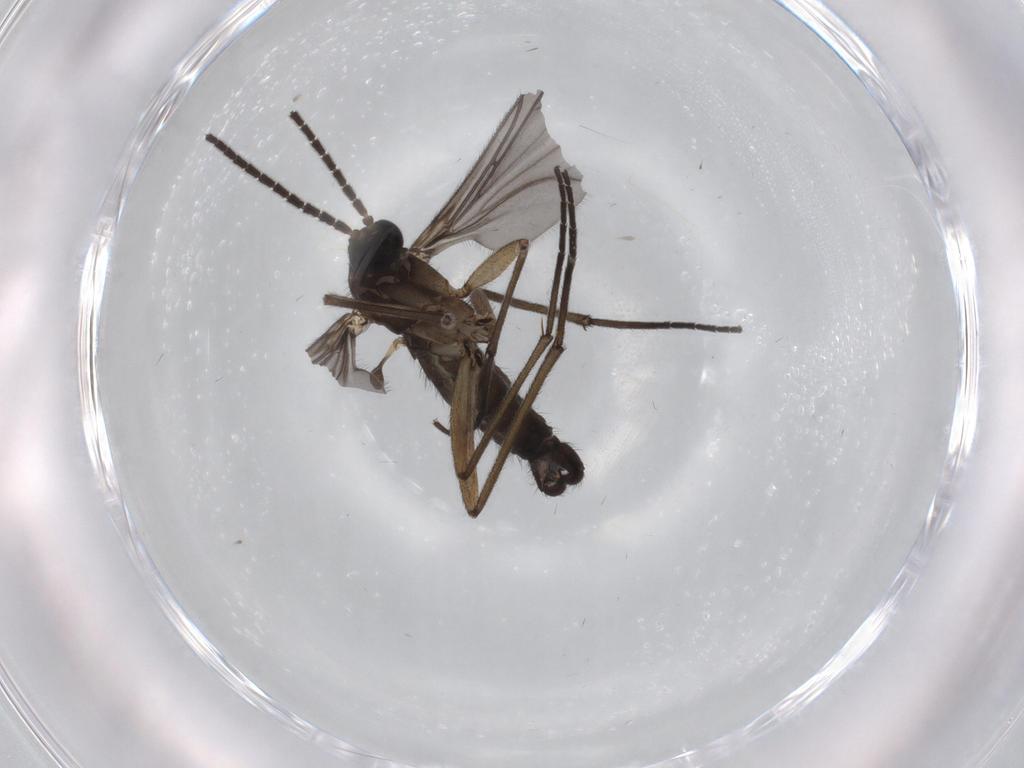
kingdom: Animalia
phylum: Arthropoda
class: Insecta
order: Diptera
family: Sciaridae
